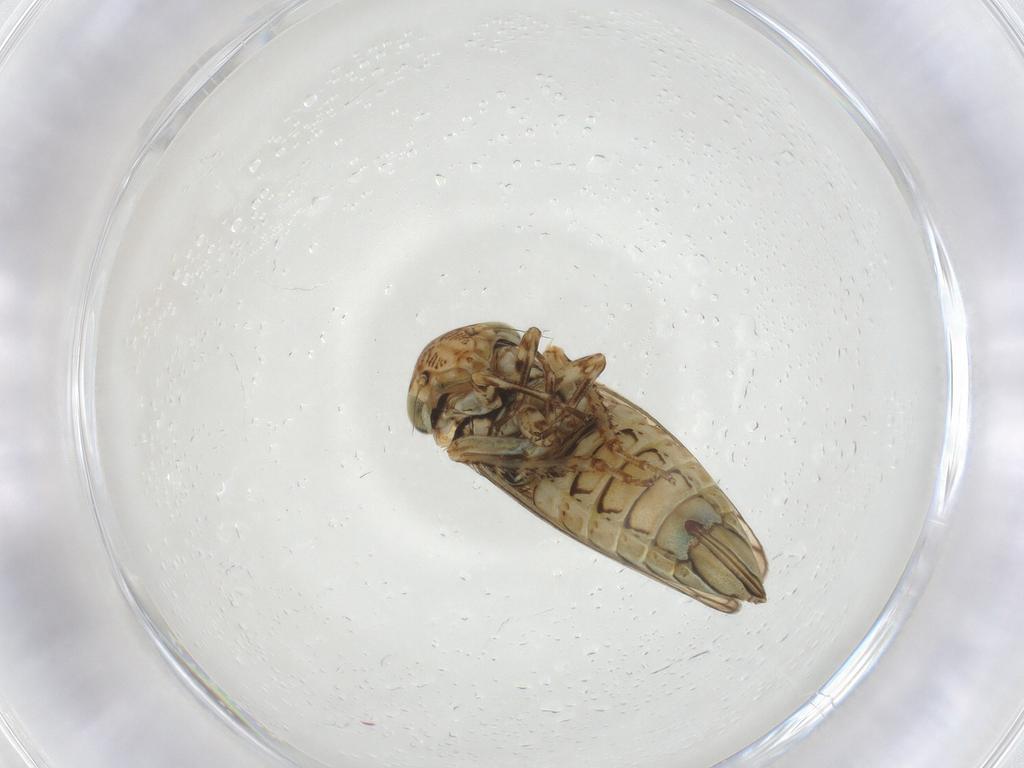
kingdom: Animalia
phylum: Arthropoda
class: Insecta
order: Hemiptera
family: Cicadellidae
